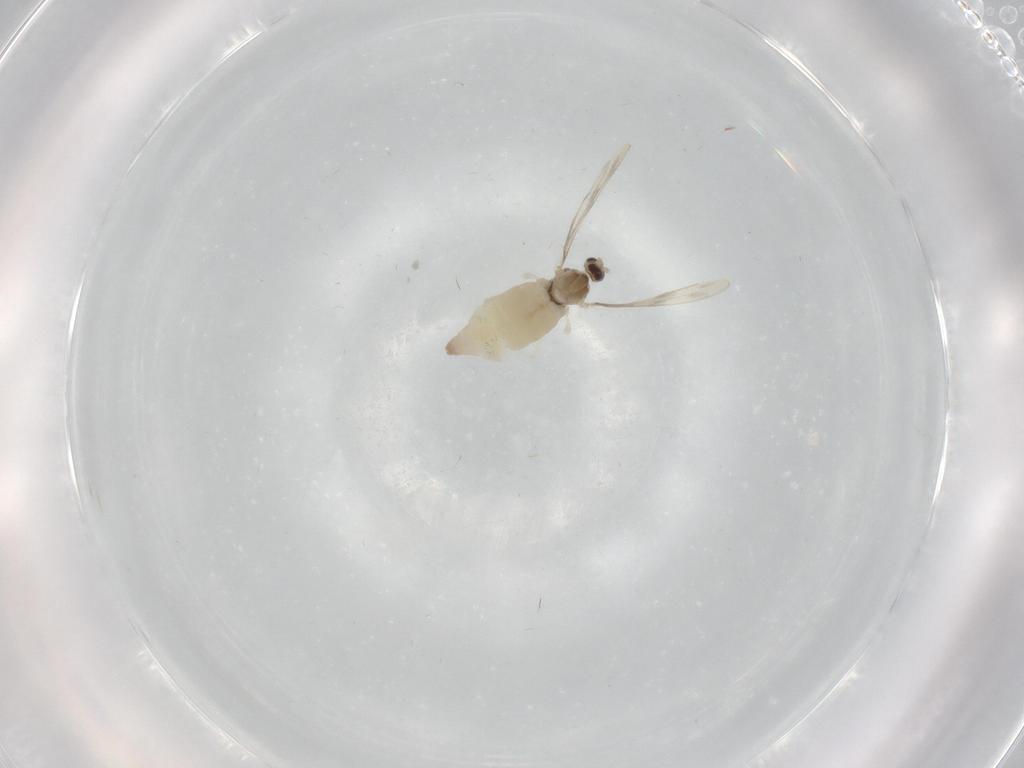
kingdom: Animalia
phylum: Arthropoda
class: Insecta
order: Diptera
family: Cecidomyiidae
